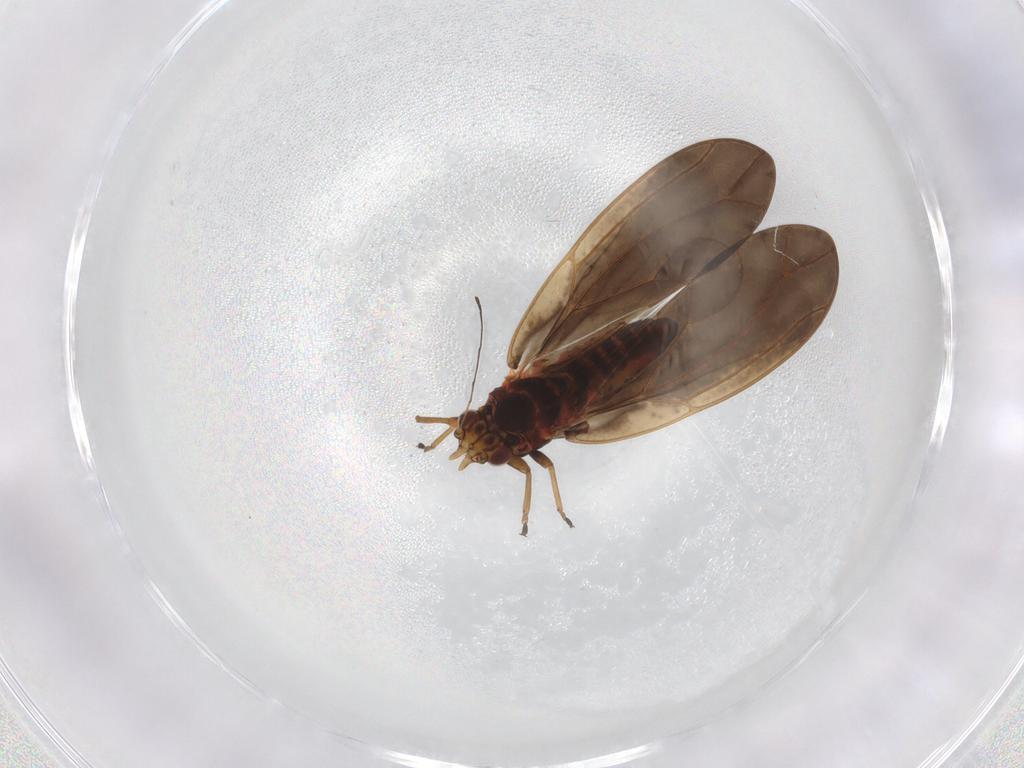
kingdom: Animalia
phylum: Arthropoda
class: Insecta
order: Hemiptera
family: Triozidae
